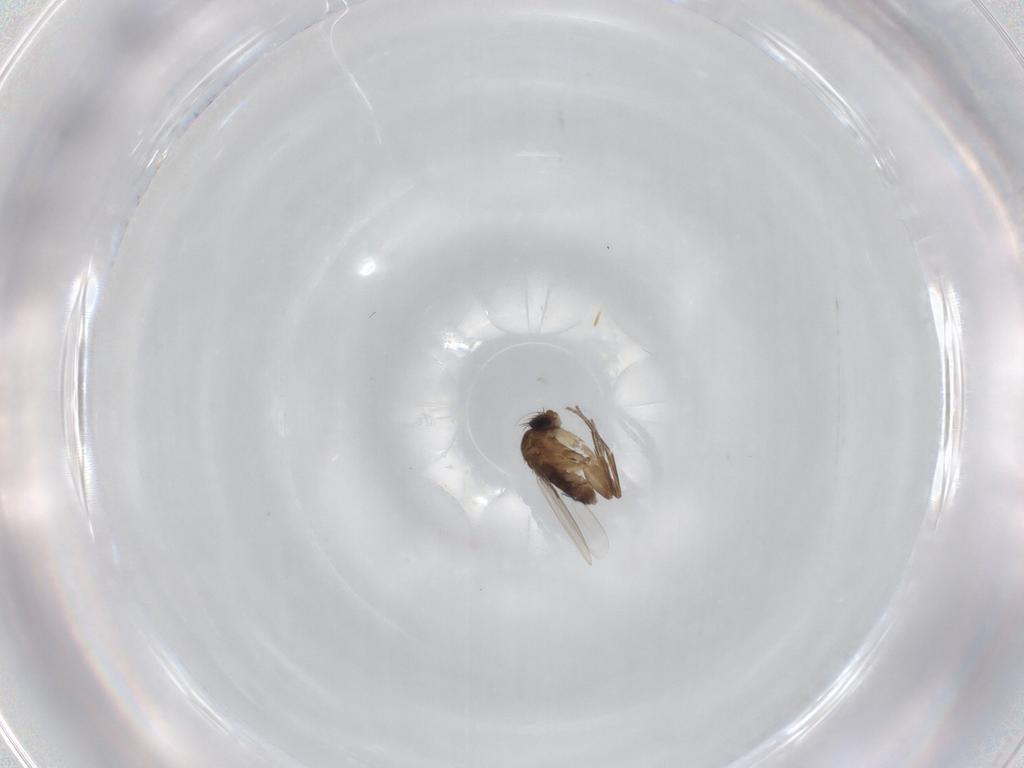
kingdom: Animalia
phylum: Arthropoda
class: Insecta
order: Diptera
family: Phoridae
